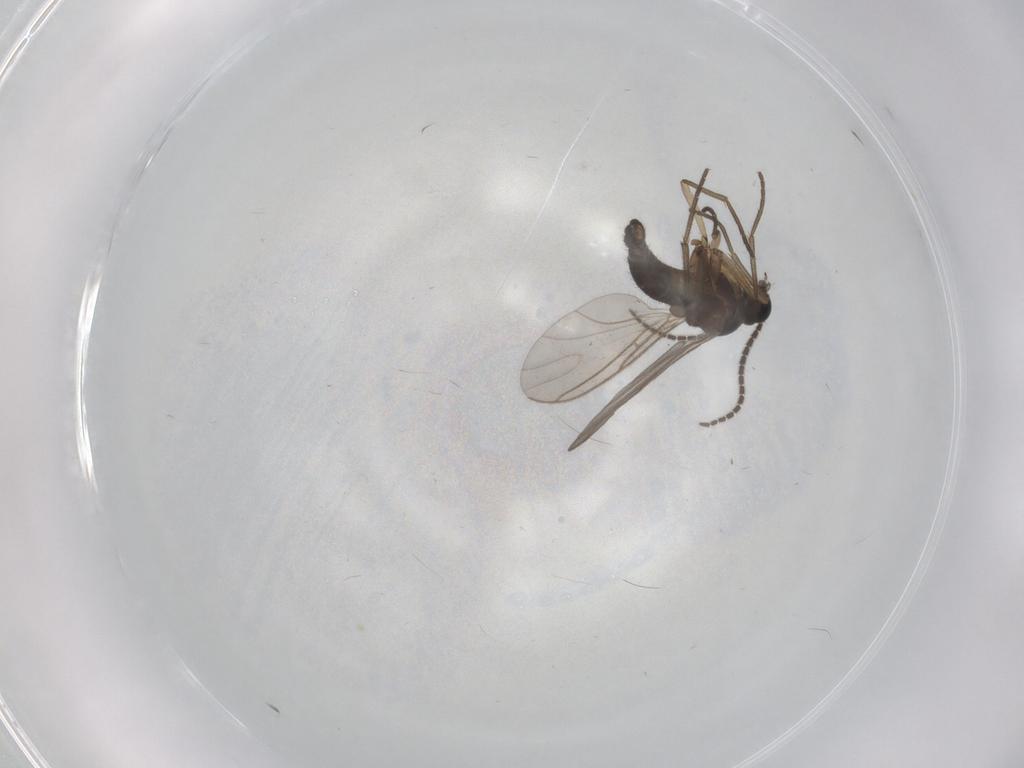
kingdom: Animalia
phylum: Arthropoda
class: Insecta
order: Diptera
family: Sciaridae
